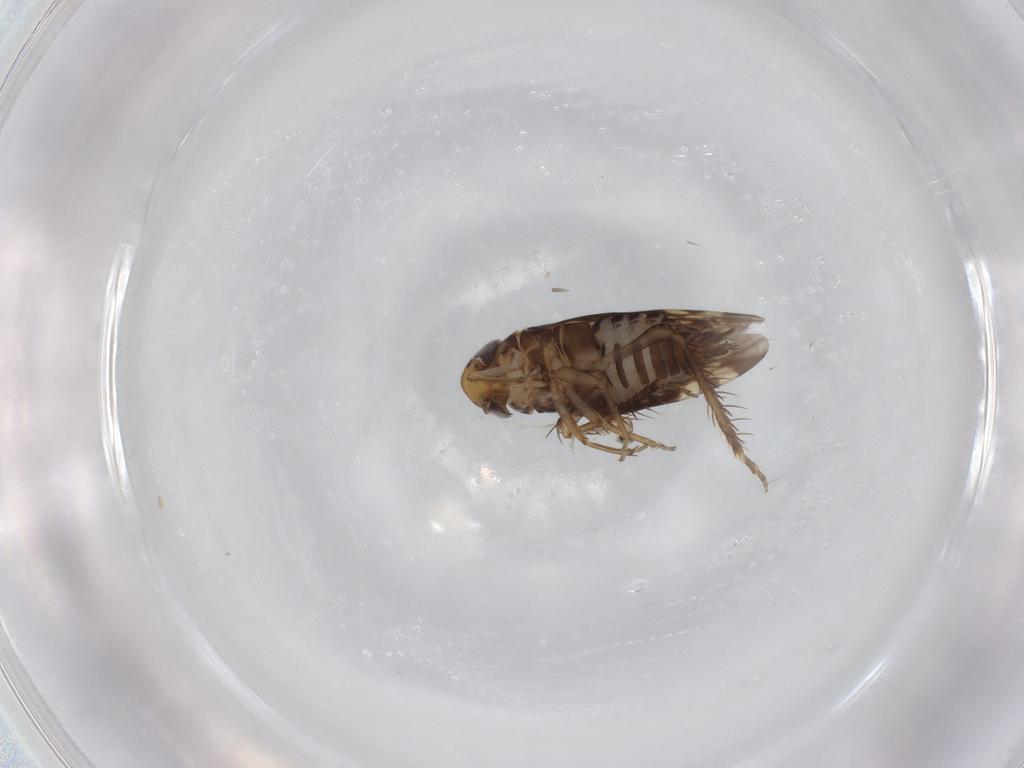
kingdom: Animalia
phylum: Arthropoda
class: Insecta
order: Hemiptera
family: Cicadellidae
